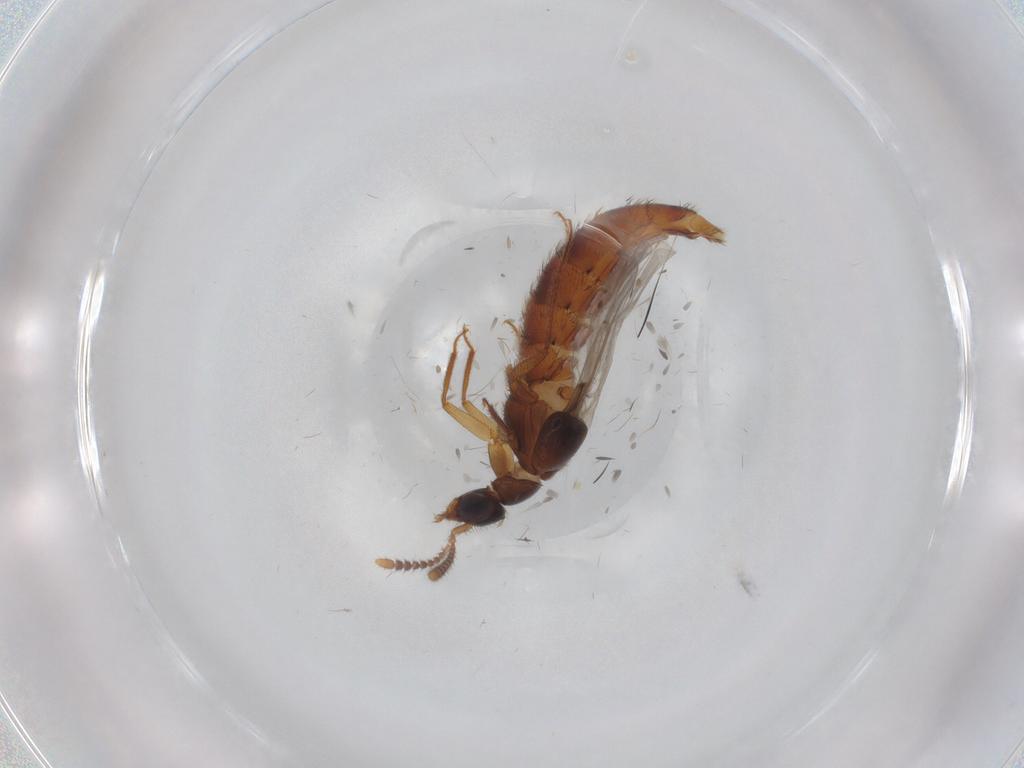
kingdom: Animalia
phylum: Arthropoda
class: Insecta
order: Coleoptera
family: Staphylinidae
